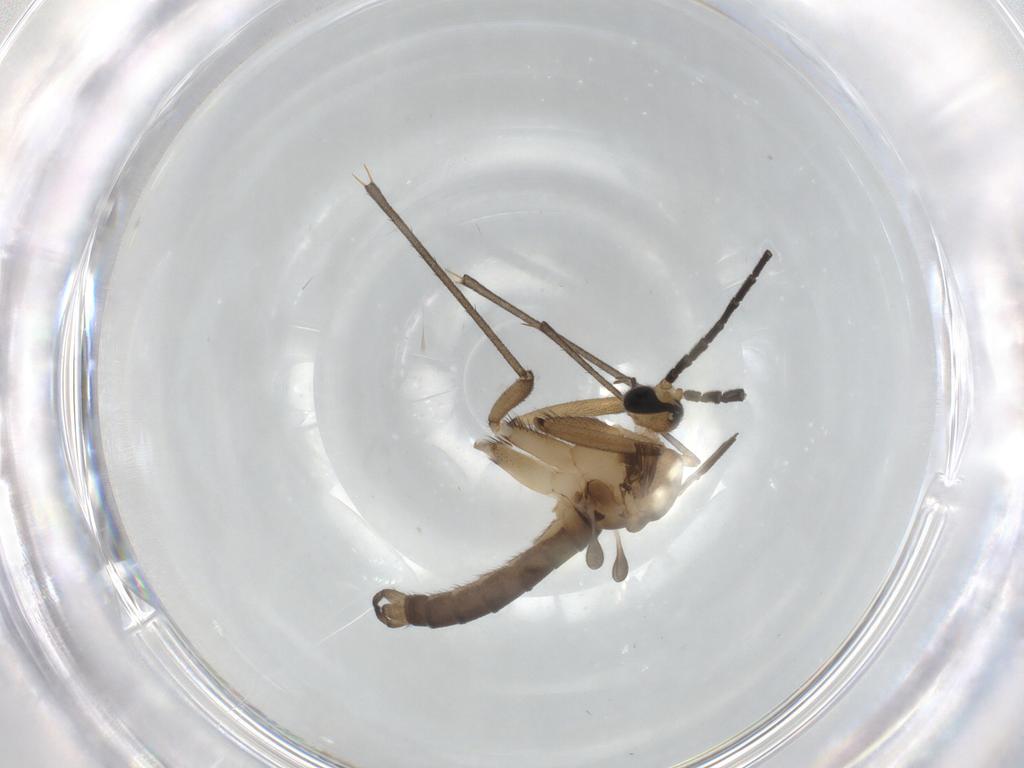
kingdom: Animalia
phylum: Arthropoda
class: Insecta
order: Diptera
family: Sciaridae
